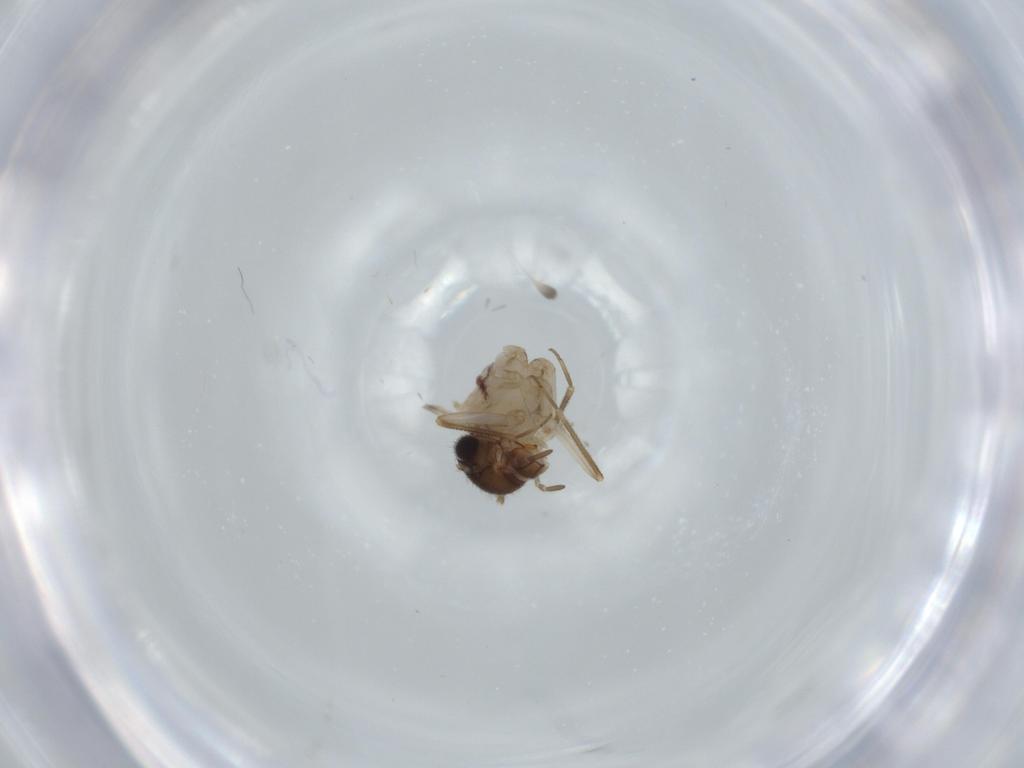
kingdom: Animalia
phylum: Arthropoda
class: Insecta
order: Psocodea
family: Epipsocidae
